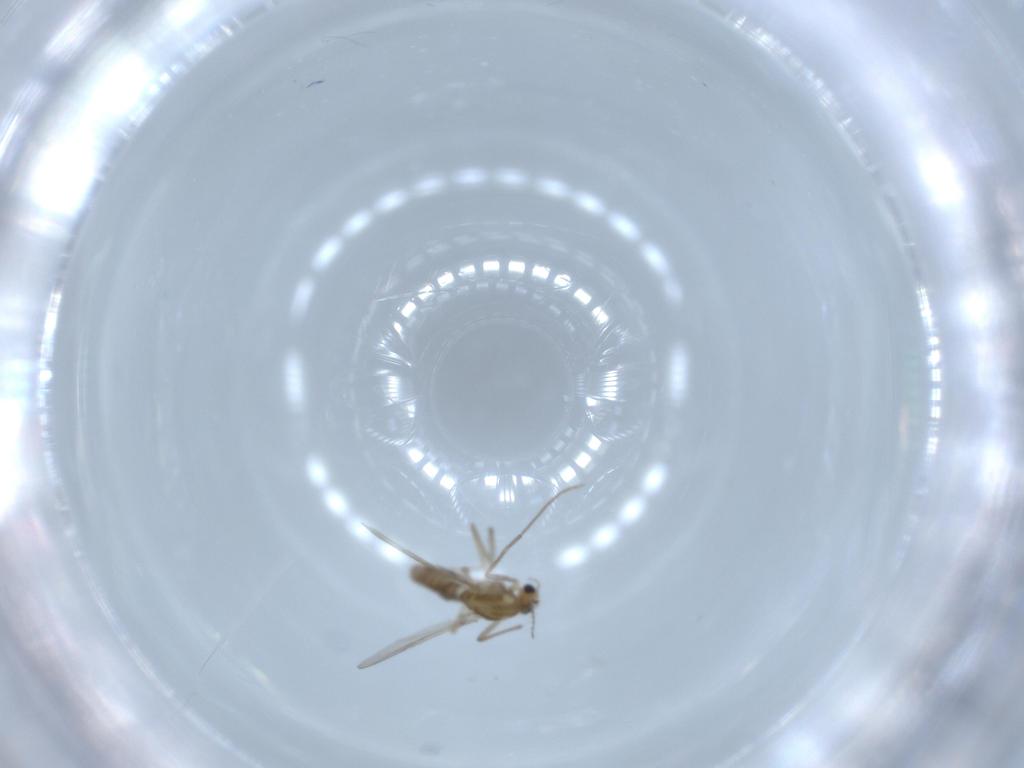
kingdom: Animalia
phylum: Arthropoda
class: Insecta
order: Diptera
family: Chironomidae
